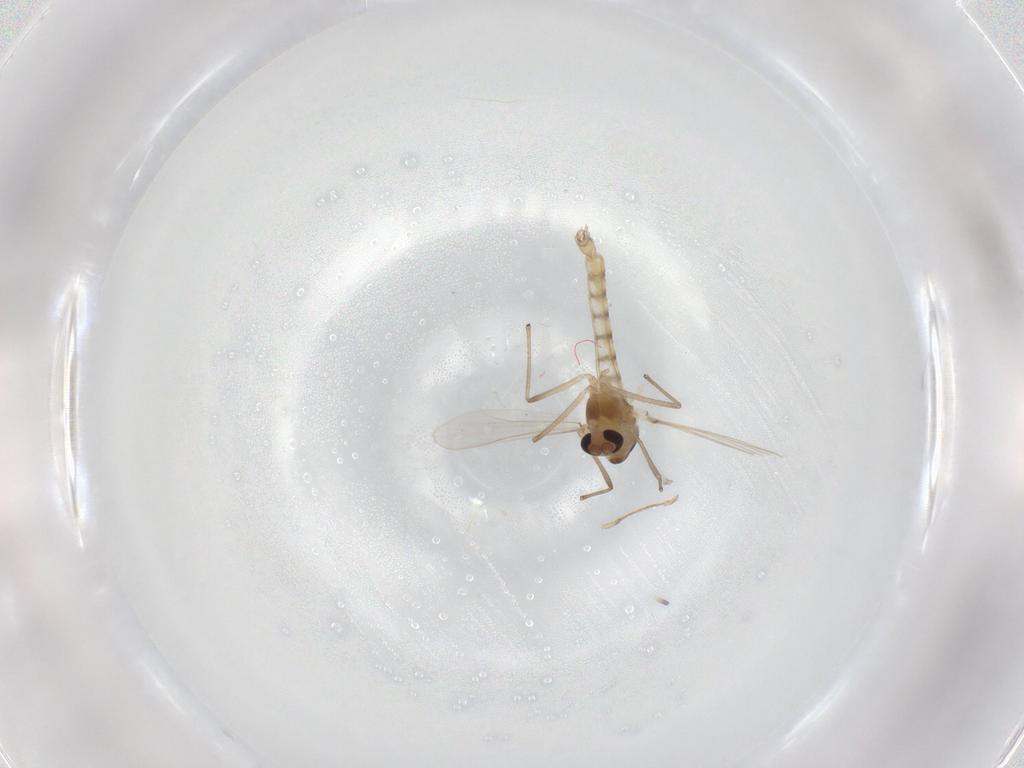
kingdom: Animalia
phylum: Arthropoda
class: Insecta
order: Diptera
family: Chironomidae
